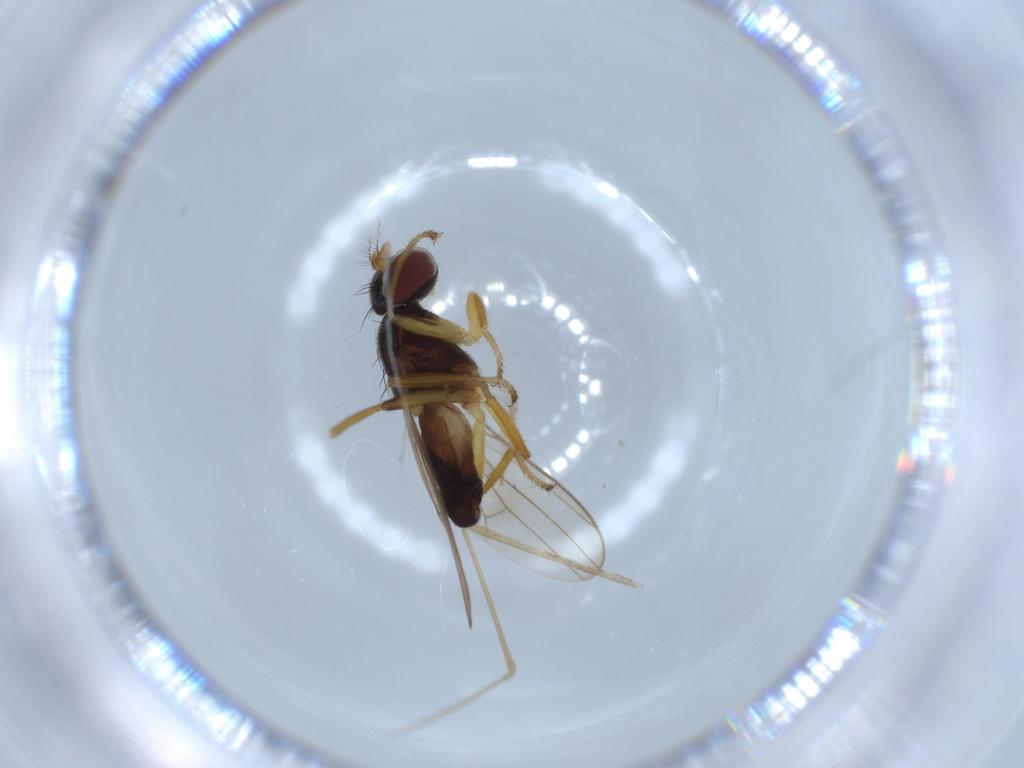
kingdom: Animalia
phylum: Arthropoda
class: Insecta
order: Diptera
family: Cecidomyiidae
